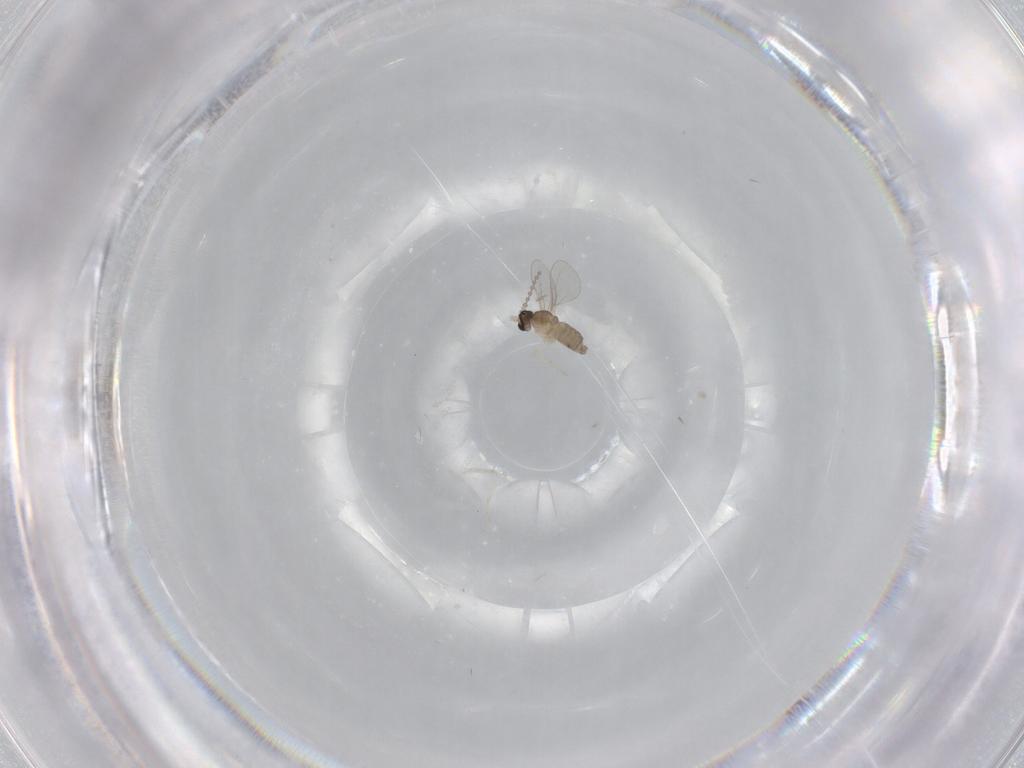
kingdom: Animalia
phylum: Arthropoda
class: Insecta
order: Diptera
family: Cecidomyiidae
